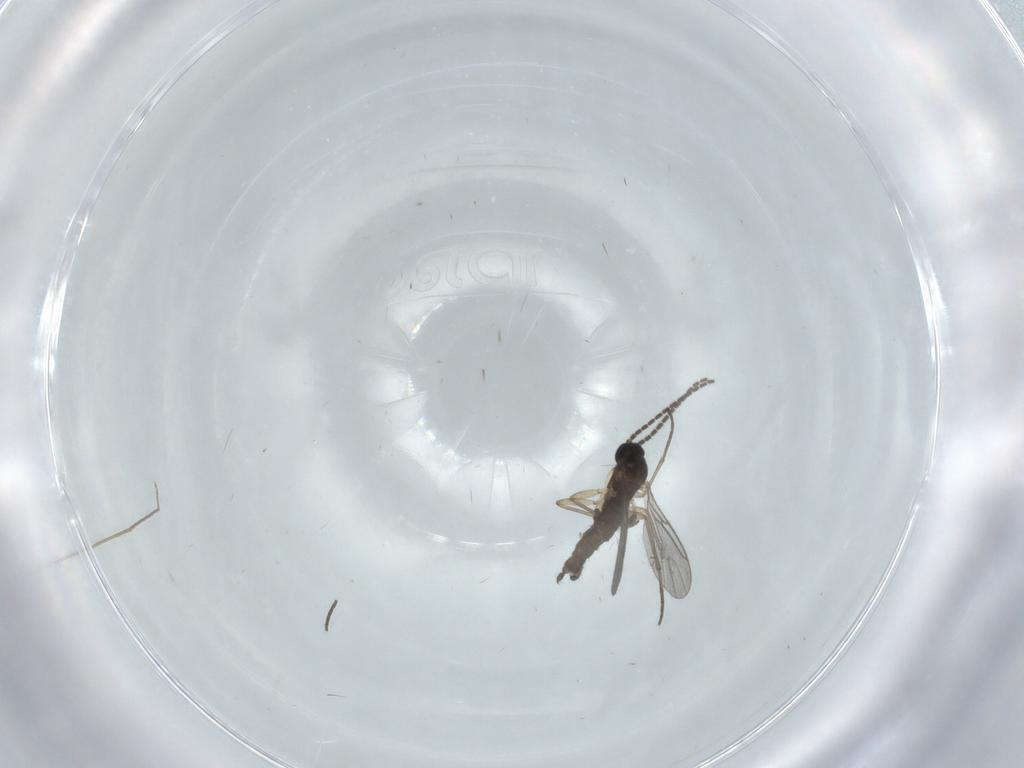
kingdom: Animalia
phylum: Arthropoda
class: Insecta
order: Diptera
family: Sciaridae
